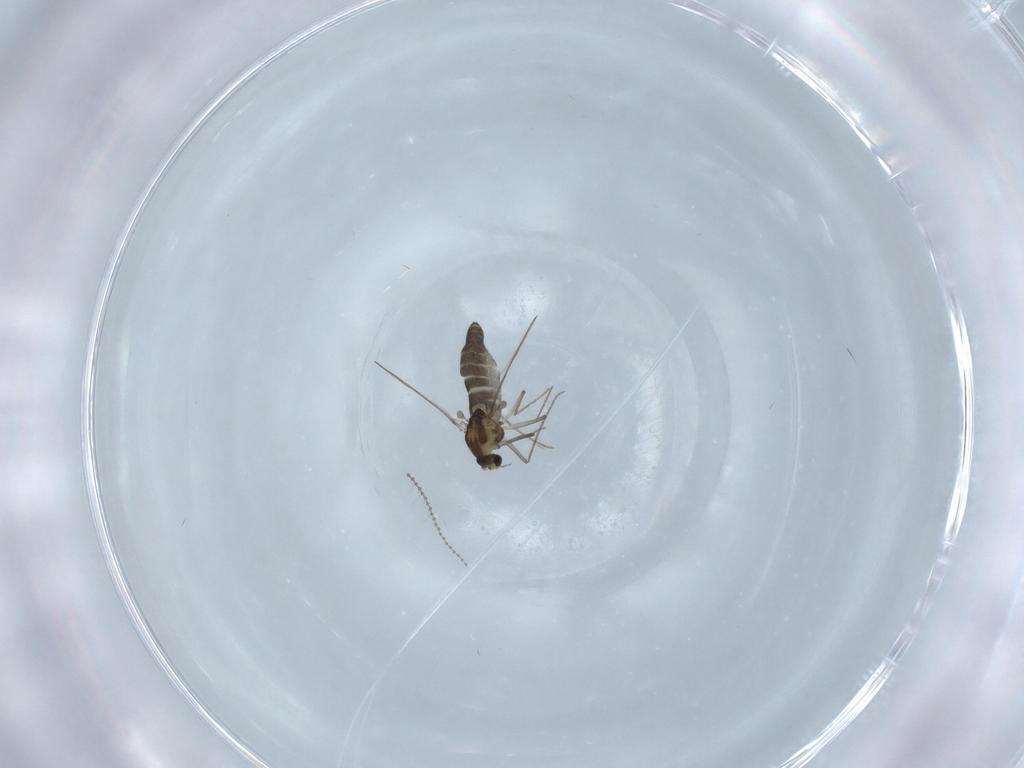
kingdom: Animalia
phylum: Arthropoda
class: Insecta
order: Diptera
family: Chironomidae
